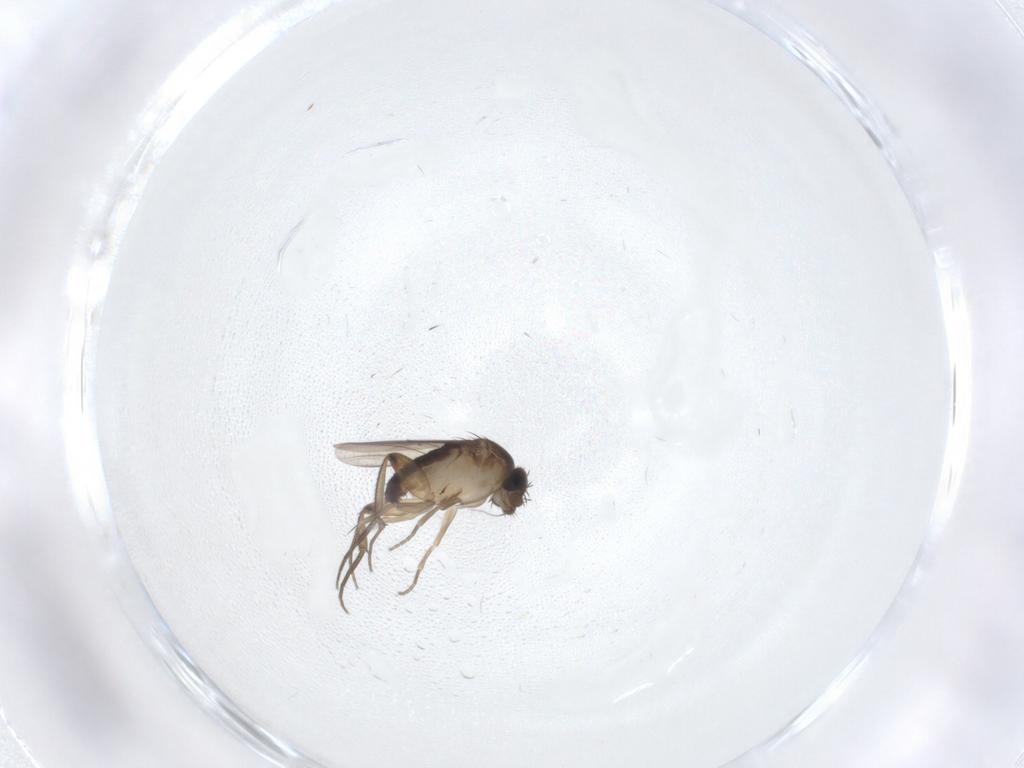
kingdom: Animalia
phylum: Arthropoda
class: Insecta
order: Diptera
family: Phoridae
